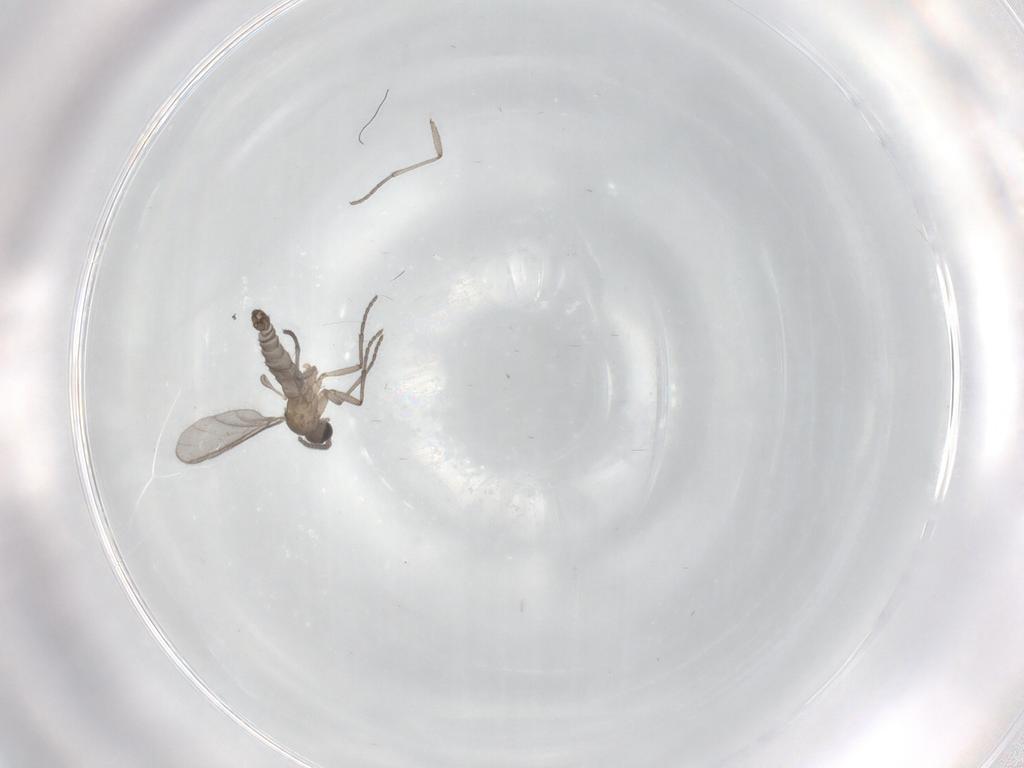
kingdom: Animalia
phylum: Arthropoda
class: Insecta
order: Diptera
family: Sciaridae
